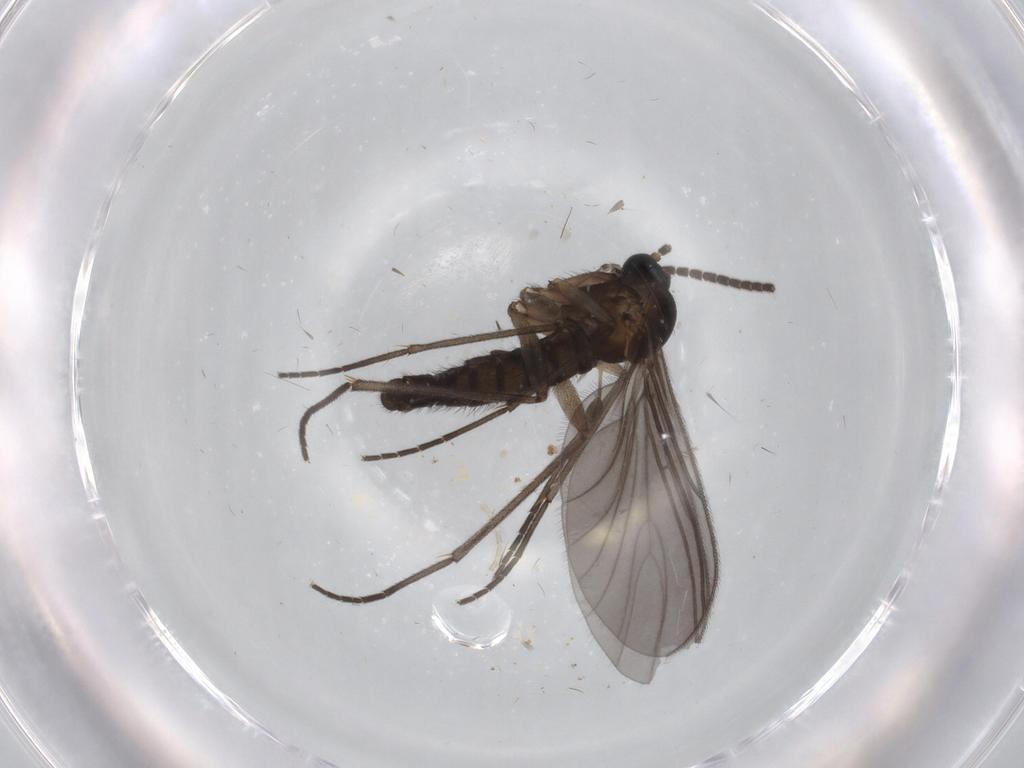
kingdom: Animalia
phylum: Arthropoda
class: Insecta
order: Diptera
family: Sciaridae
